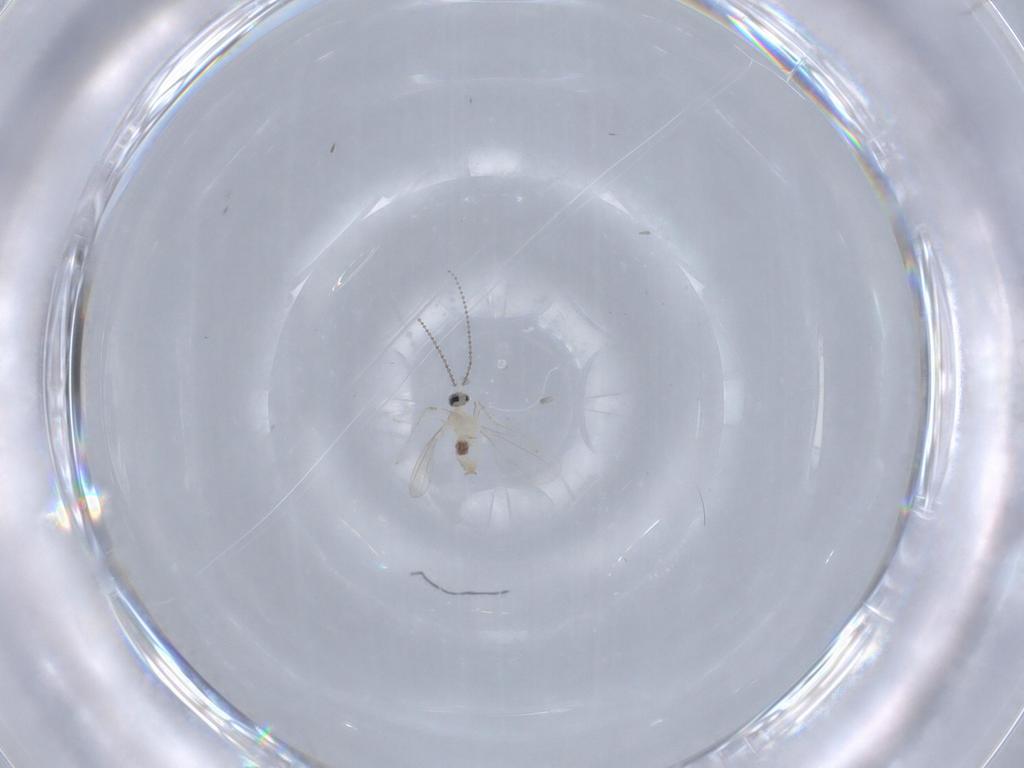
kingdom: Animalia
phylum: Arthropoda
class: Insecta
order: Diptera
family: Cecidomyiidae
